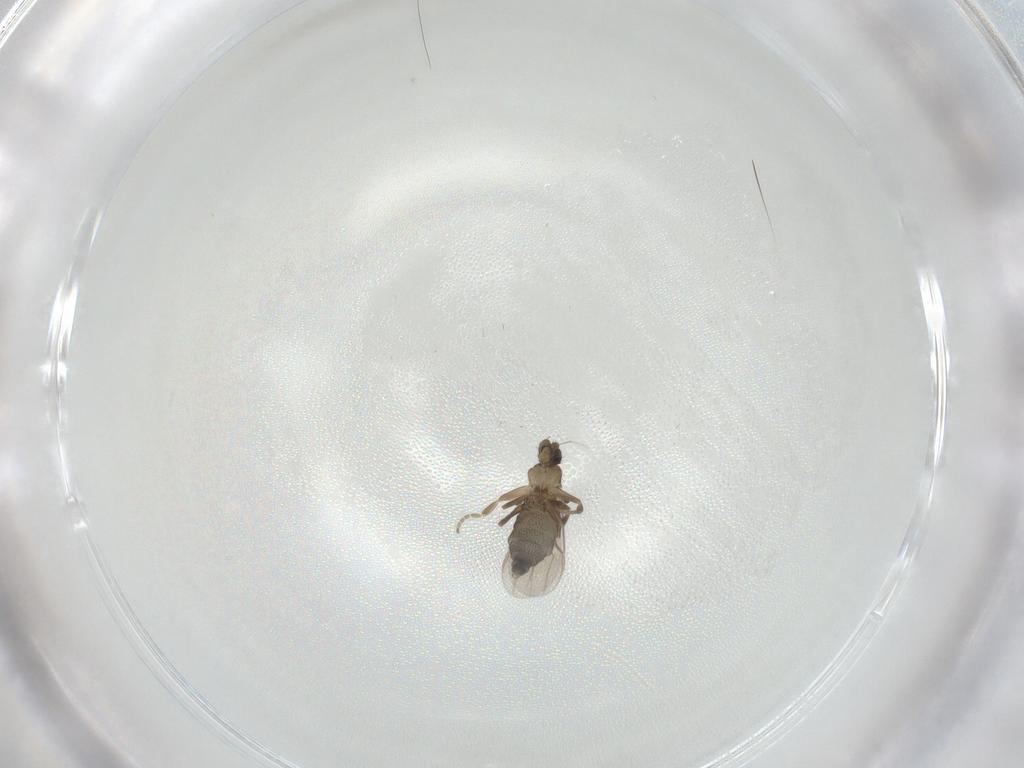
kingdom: Animalia
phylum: Arthropoda
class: Insecta
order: Diptera
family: Phoridae
